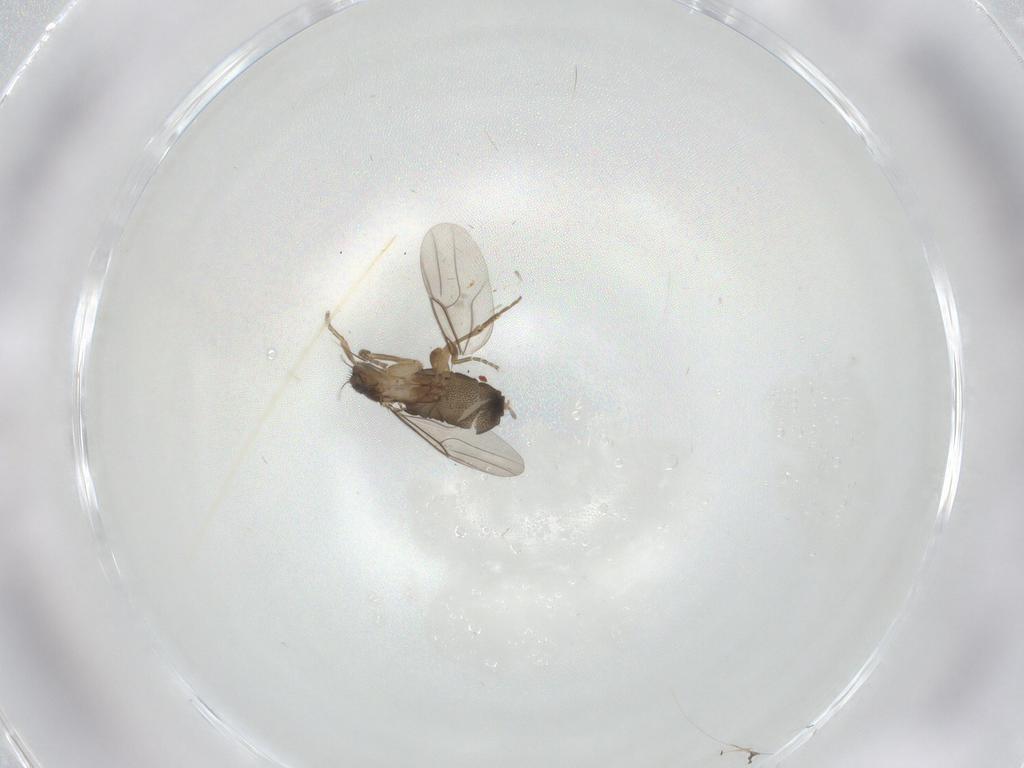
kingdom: Animalia
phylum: Arthropoda
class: Insecta
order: Diptera
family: Phoridae
